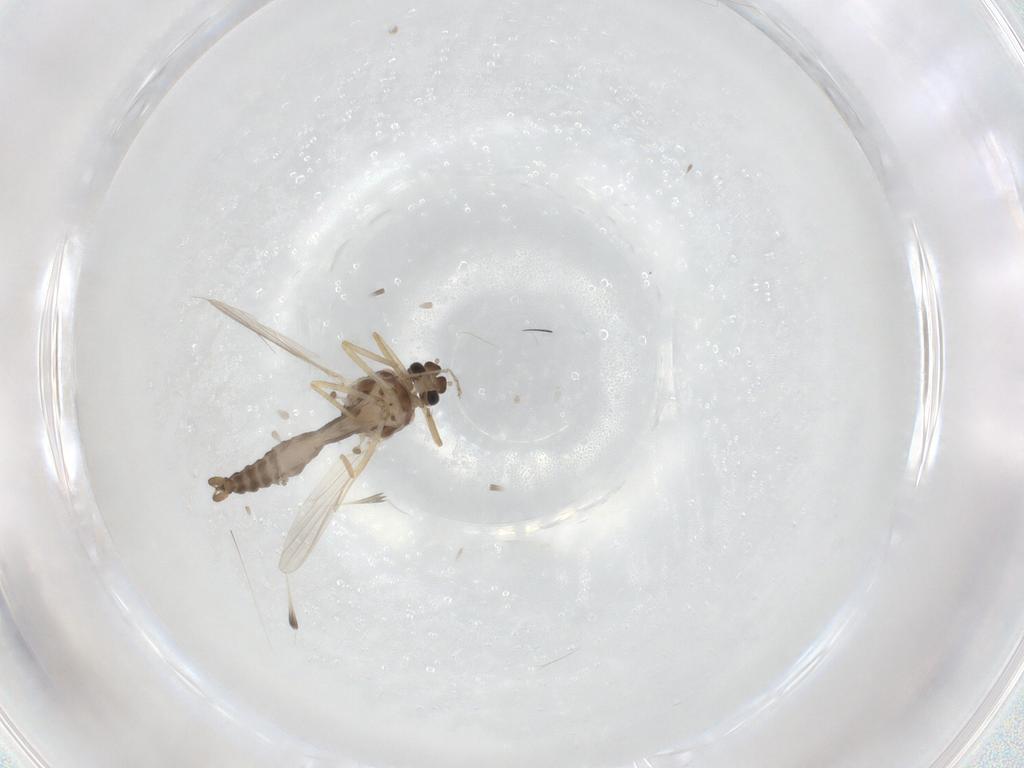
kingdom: Animalia
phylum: Arthropoda
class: Insecta
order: Diptera
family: Ceratopogonidae
